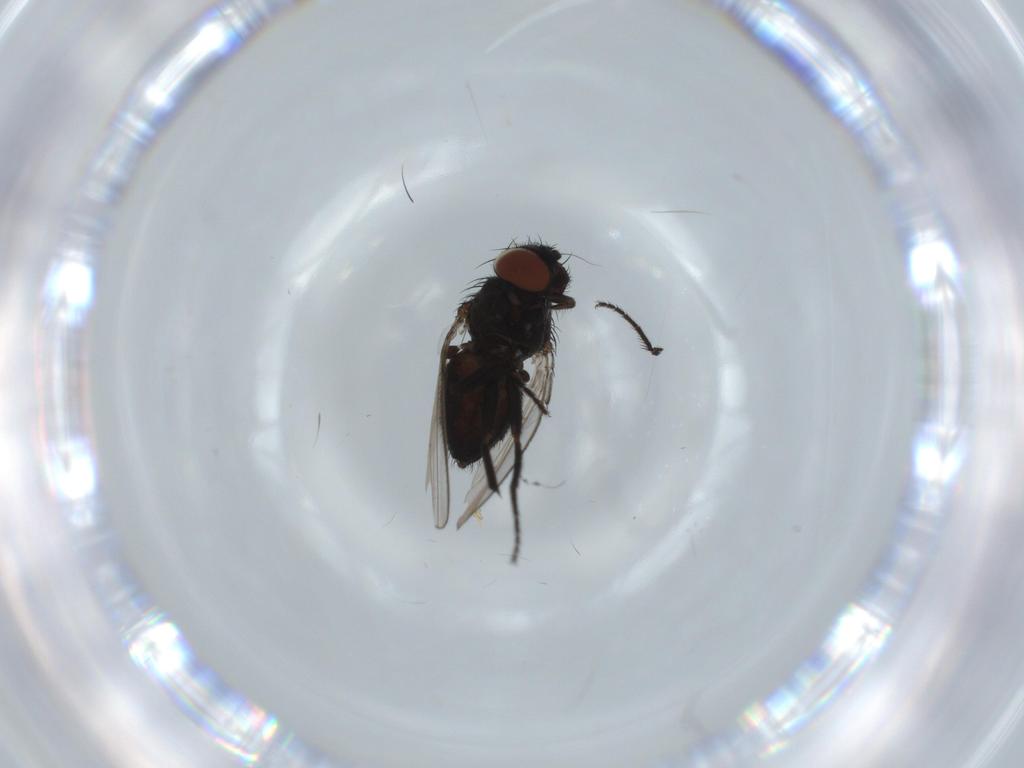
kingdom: Animalia
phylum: Arthropoda
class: Insecta
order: Diptera
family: Milichiidae
